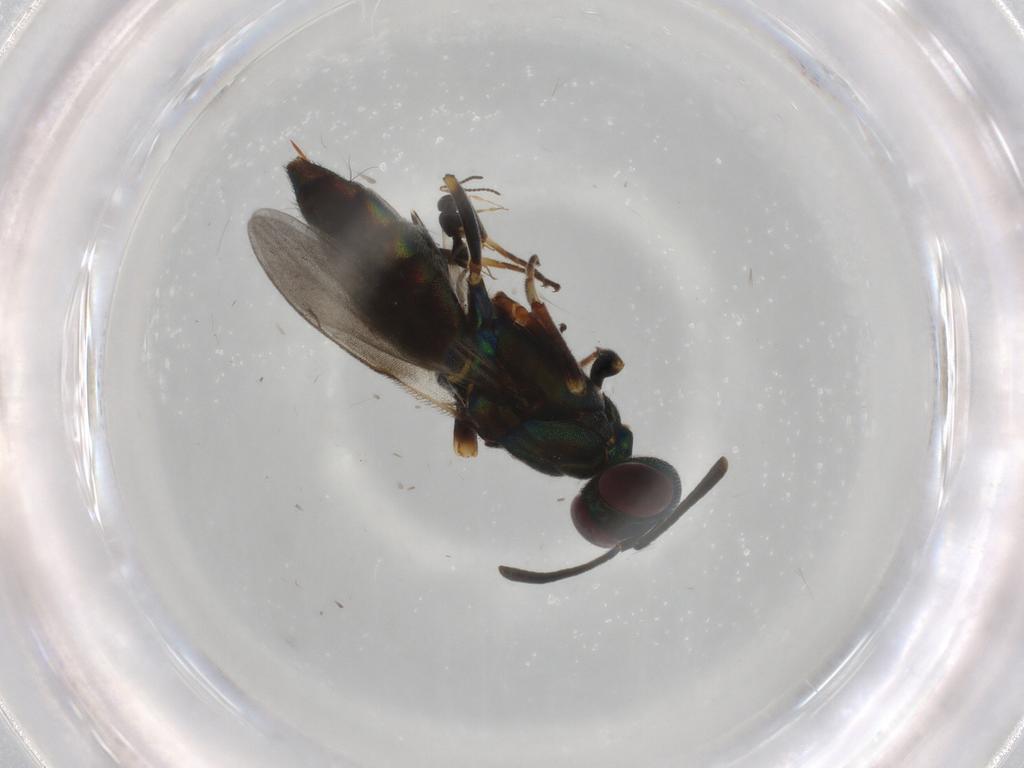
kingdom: Animalia
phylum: Arthropoda
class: Insecta
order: Hymenoptera
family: Eupelmidae
